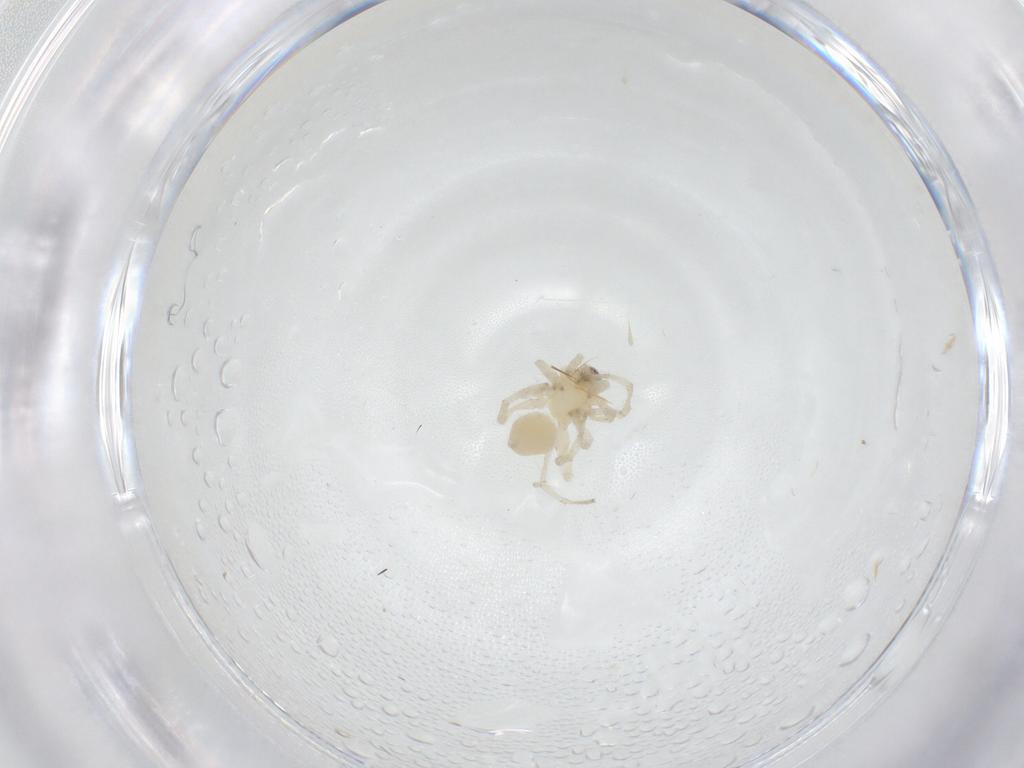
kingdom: Animalia
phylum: Arthropoda
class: Arachnida
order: Araneae
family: Anyphaenidae
